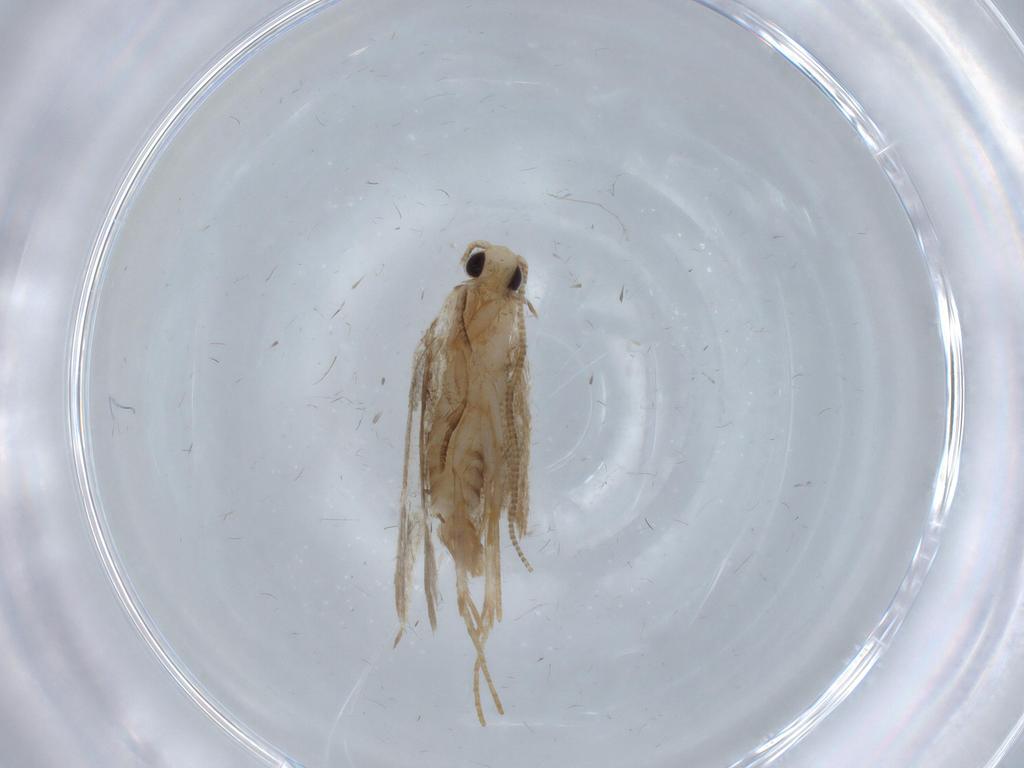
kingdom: Animalia
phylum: Arthropoda
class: Insecta
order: Lepidoptera
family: Tineidae
